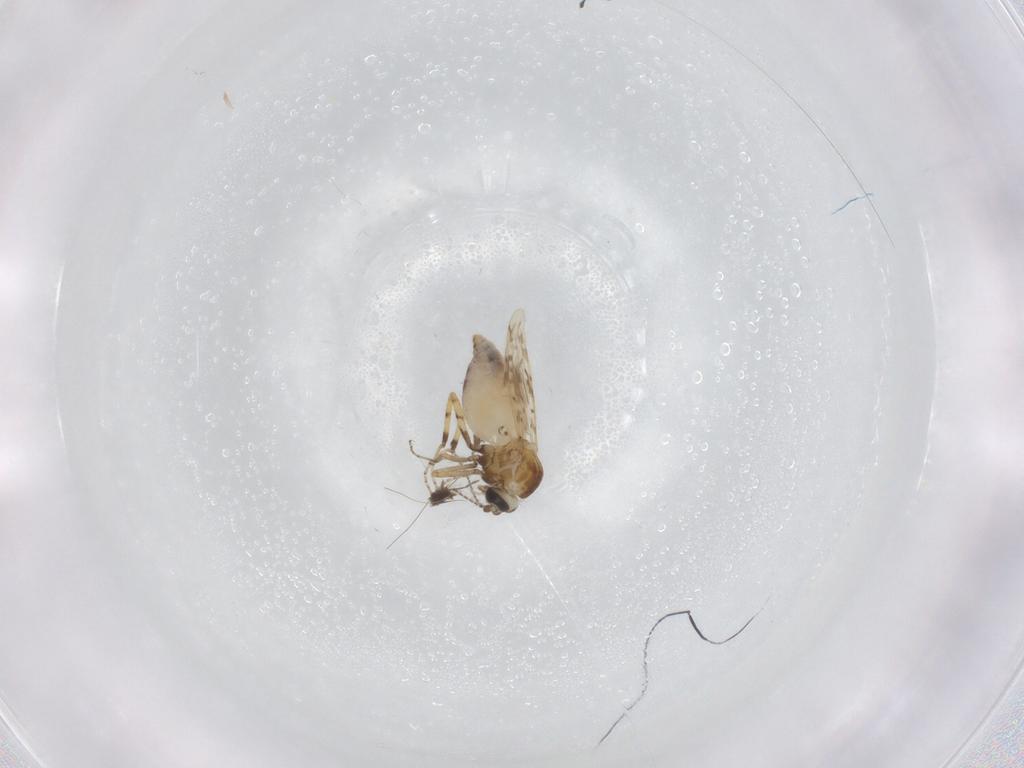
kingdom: Animalia
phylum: Arthropoda
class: Insecta
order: Diptera
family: Ceratopogonidae
